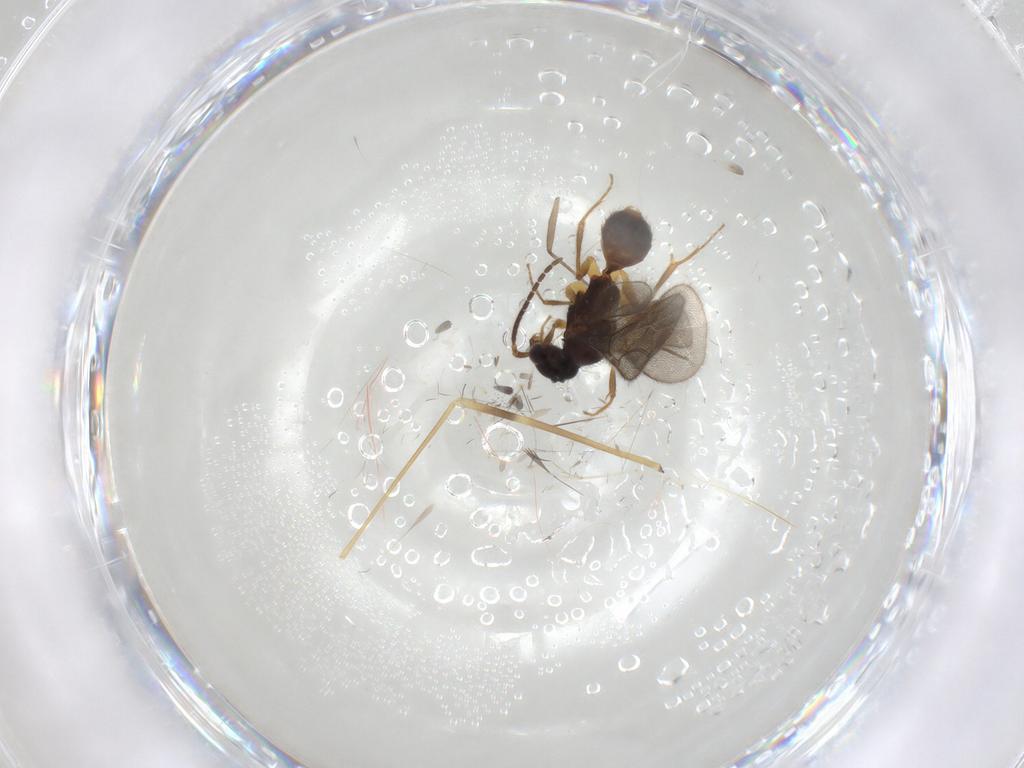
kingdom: Animalia
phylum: Arthropoda
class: Insecta
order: Hymenoptera
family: Bethylidae
